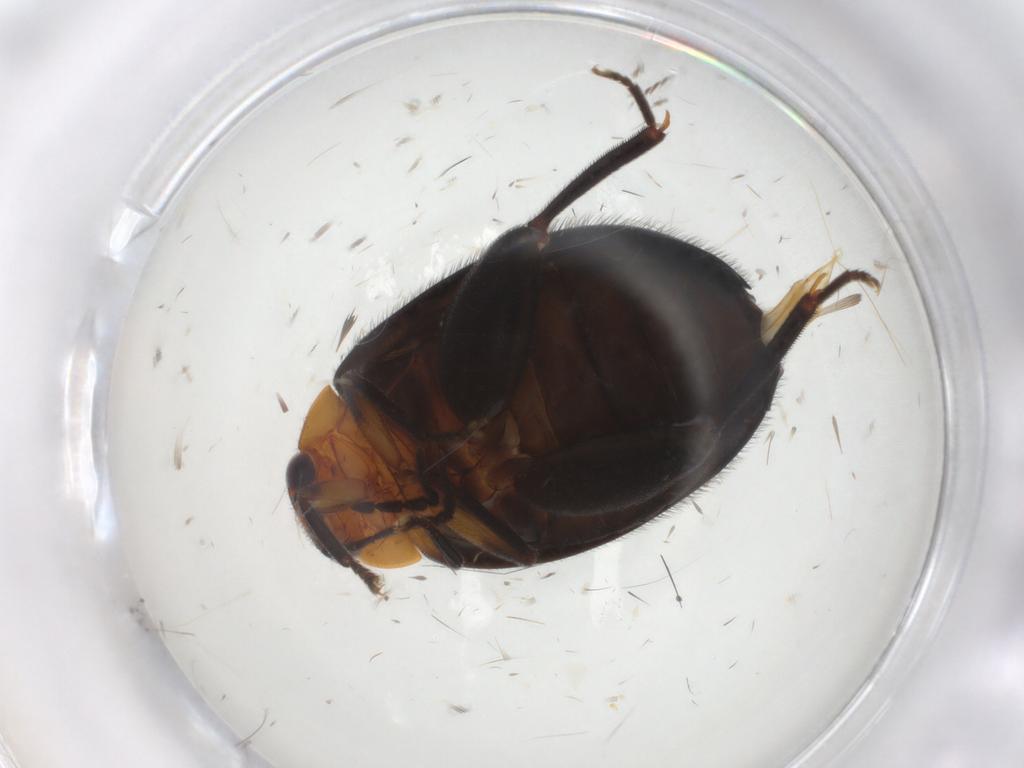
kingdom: Animalia
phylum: Arthropoda
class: Insecta
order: Coleoptera
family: Scirtidae
